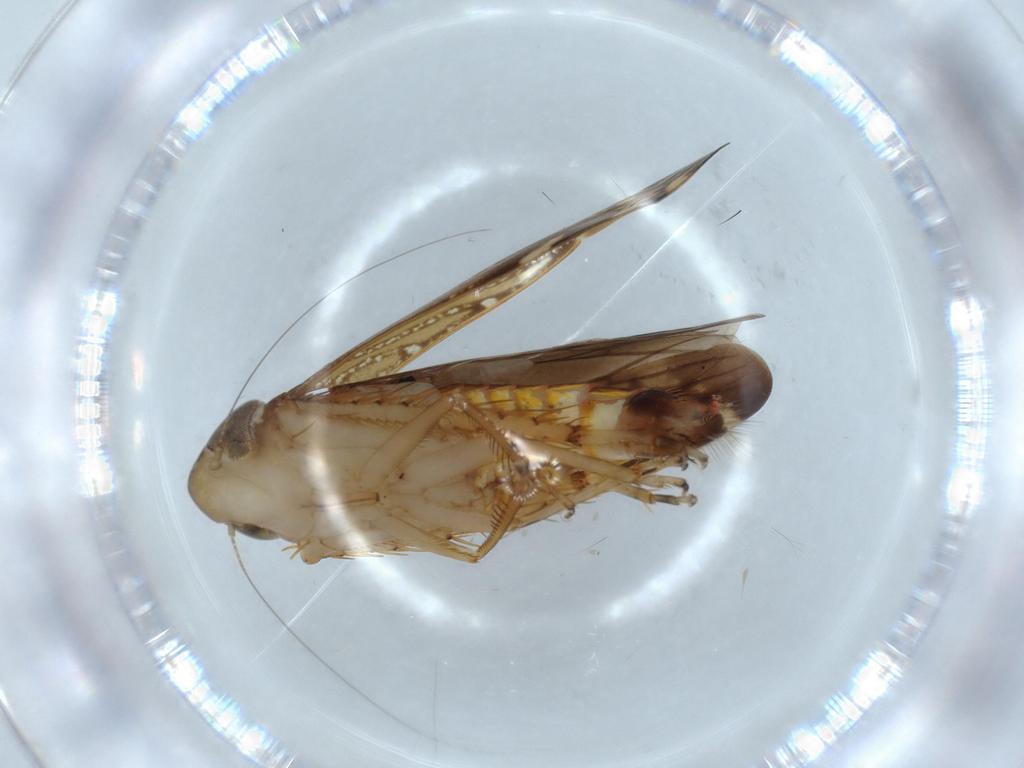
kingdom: Animalia
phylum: Arthropoda
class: Insecta
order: Hemiptera
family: Cicadellidae
